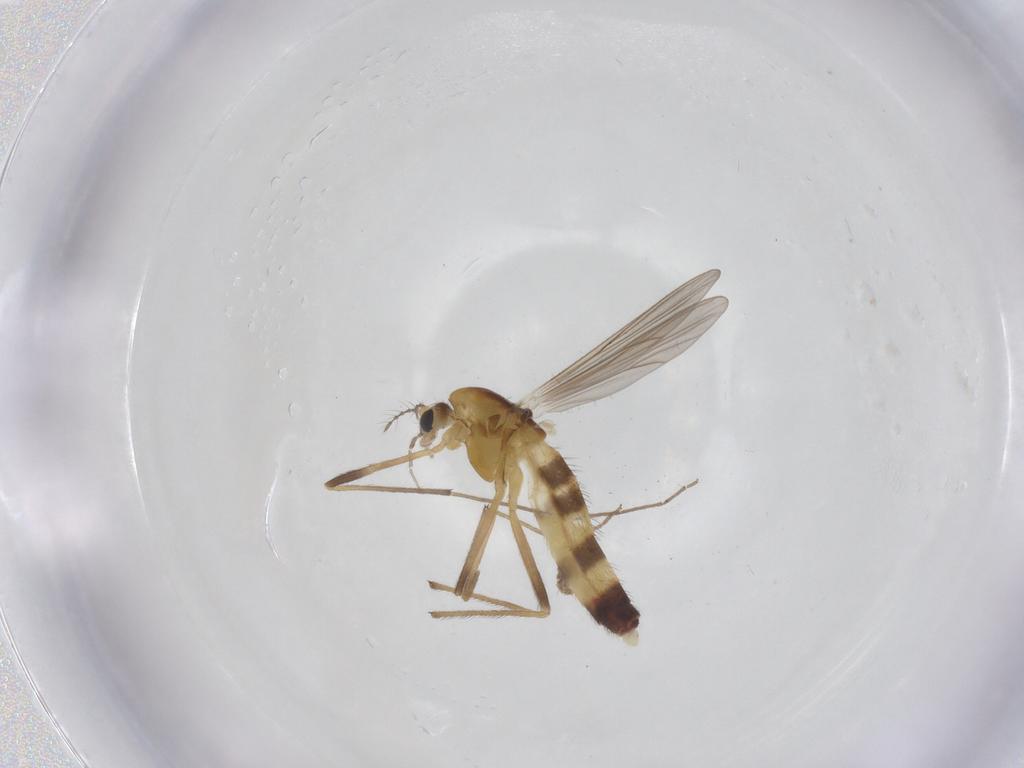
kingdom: Animalia
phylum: Arthropoda
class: Insecta
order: Diptera
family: Chironomidae
